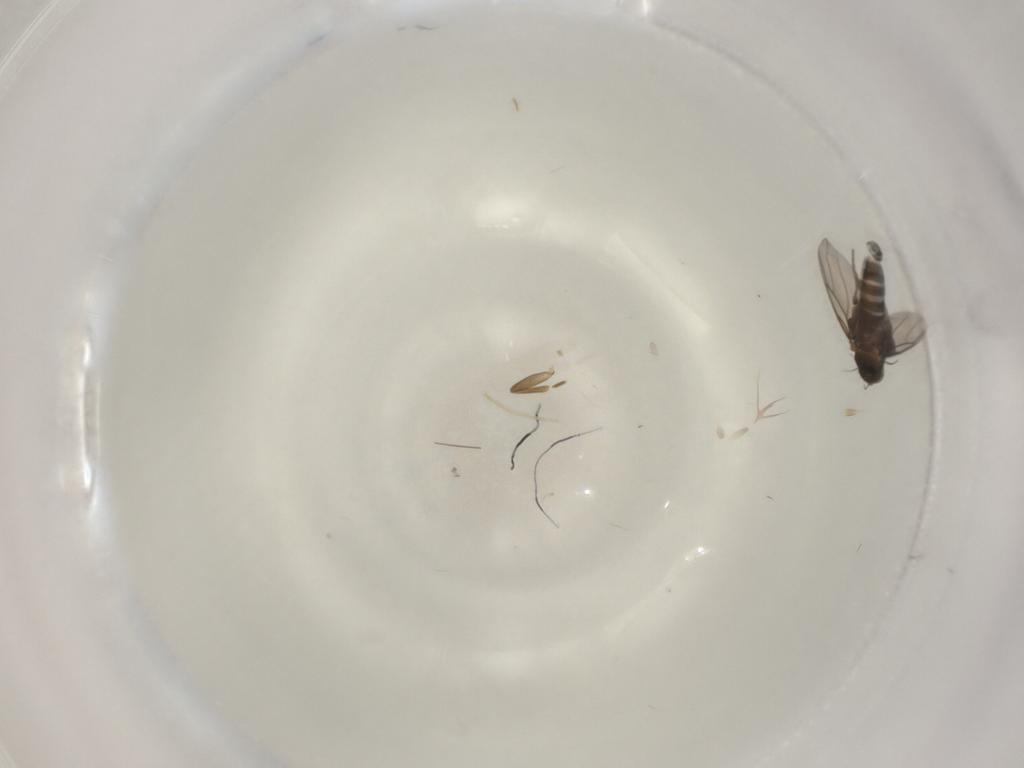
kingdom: Animalia
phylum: Arthropoda
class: Insecta
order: Diptera
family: Phoridae
